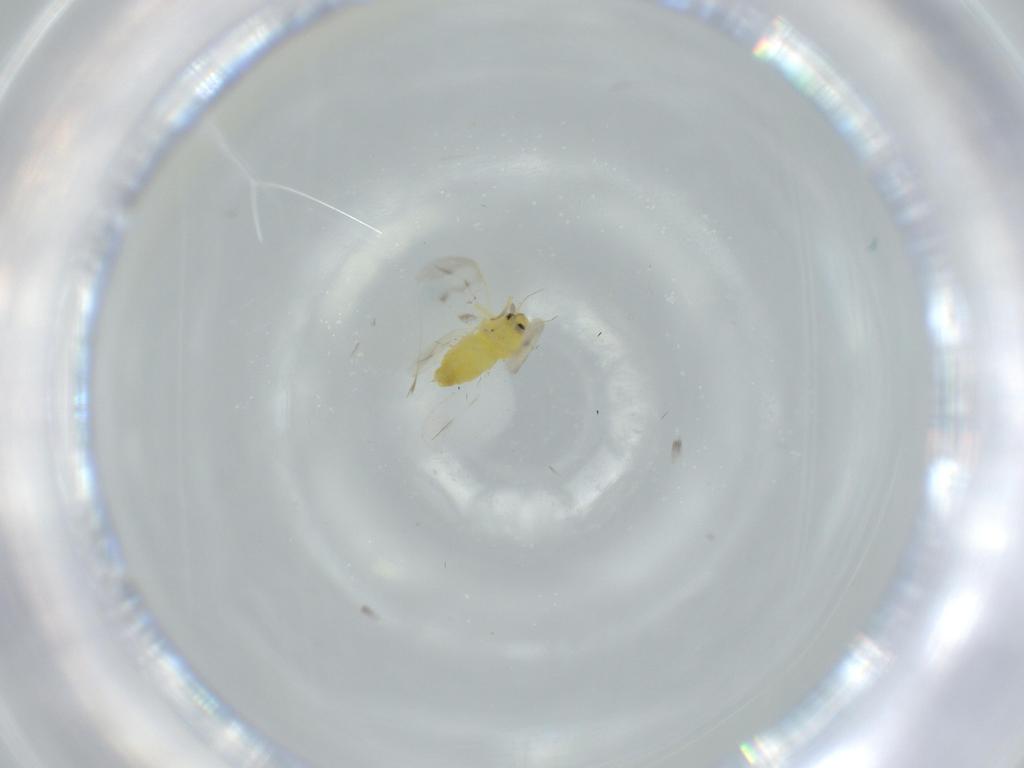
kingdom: Animalia
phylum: Arthropoda
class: Insecta
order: Hemiptera
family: Aleyrodidae
